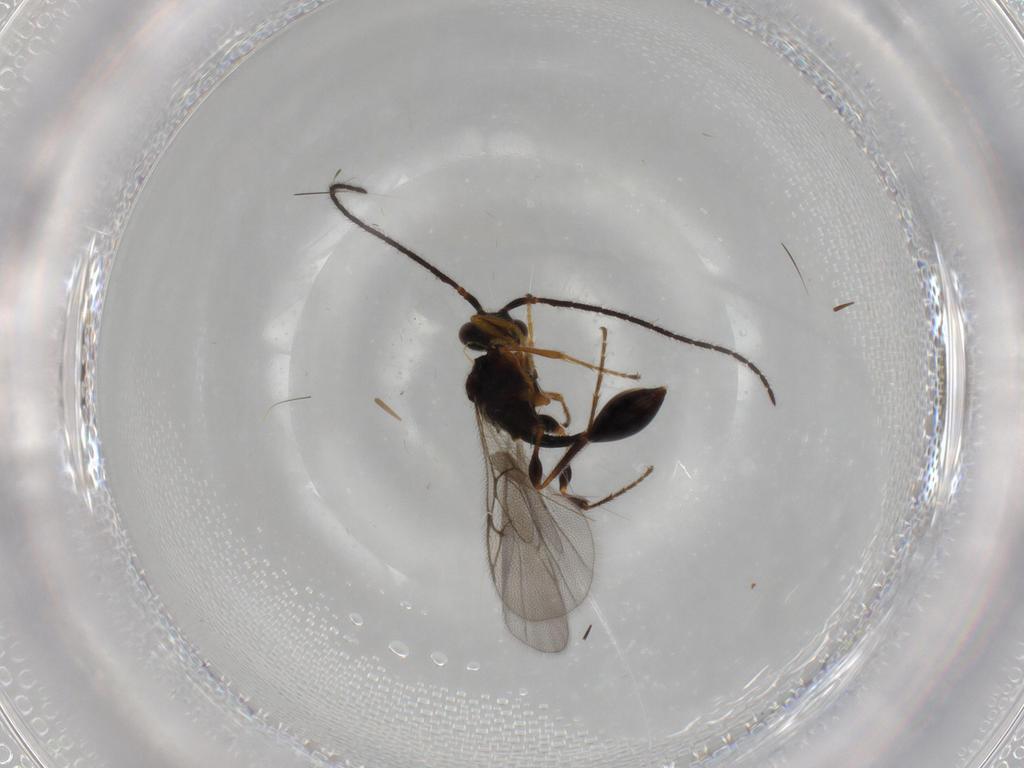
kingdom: Animalia
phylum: Arthropoda
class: Insecta
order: Hymenoptera
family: Diapriidae
